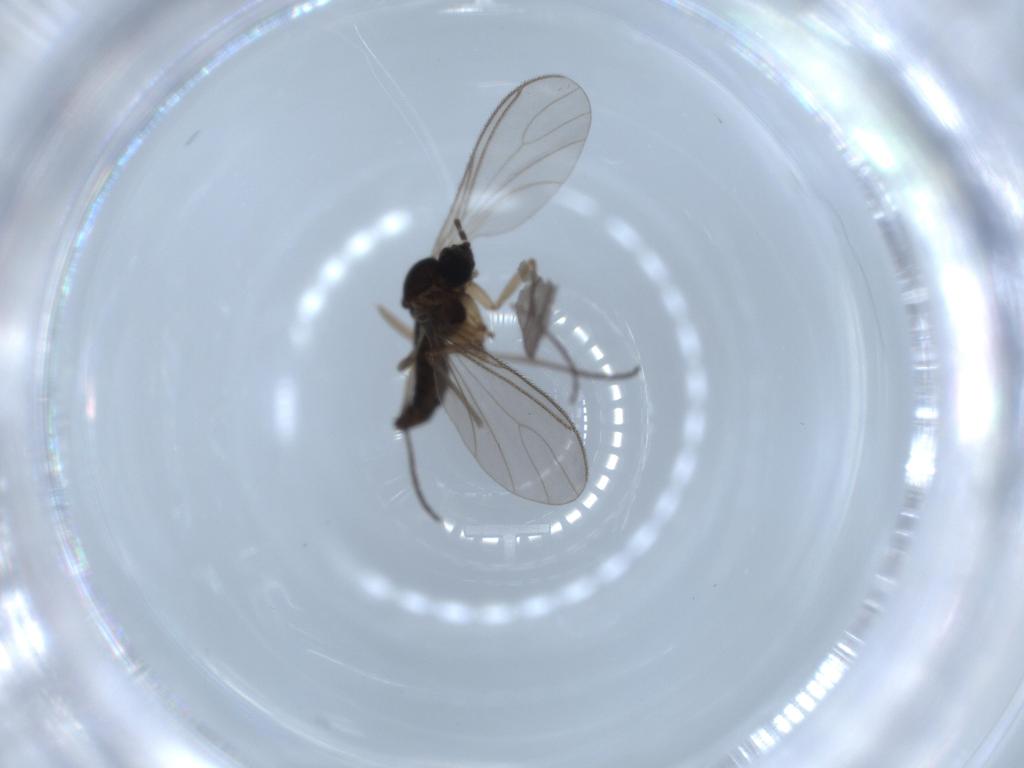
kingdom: Animalia
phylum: Arthropoda
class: Insecta
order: Diptera
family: Sciaridae
